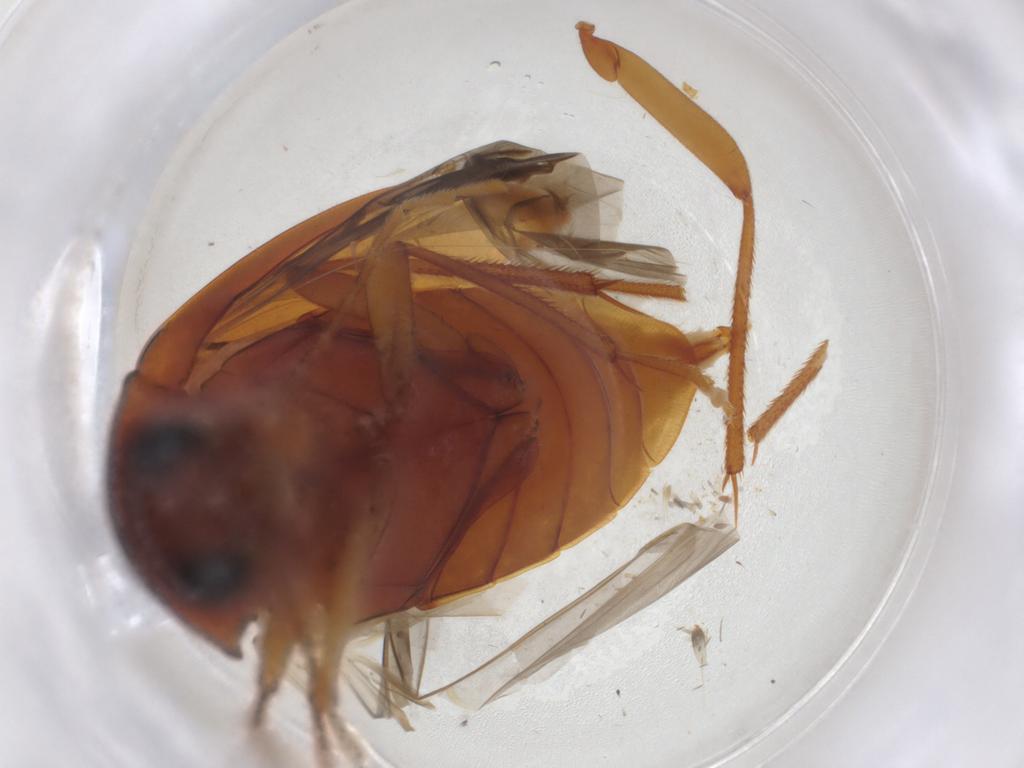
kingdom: Animalia
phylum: Arthropoda
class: Insecta
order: Coleoptera
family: Ptilodactylidae
